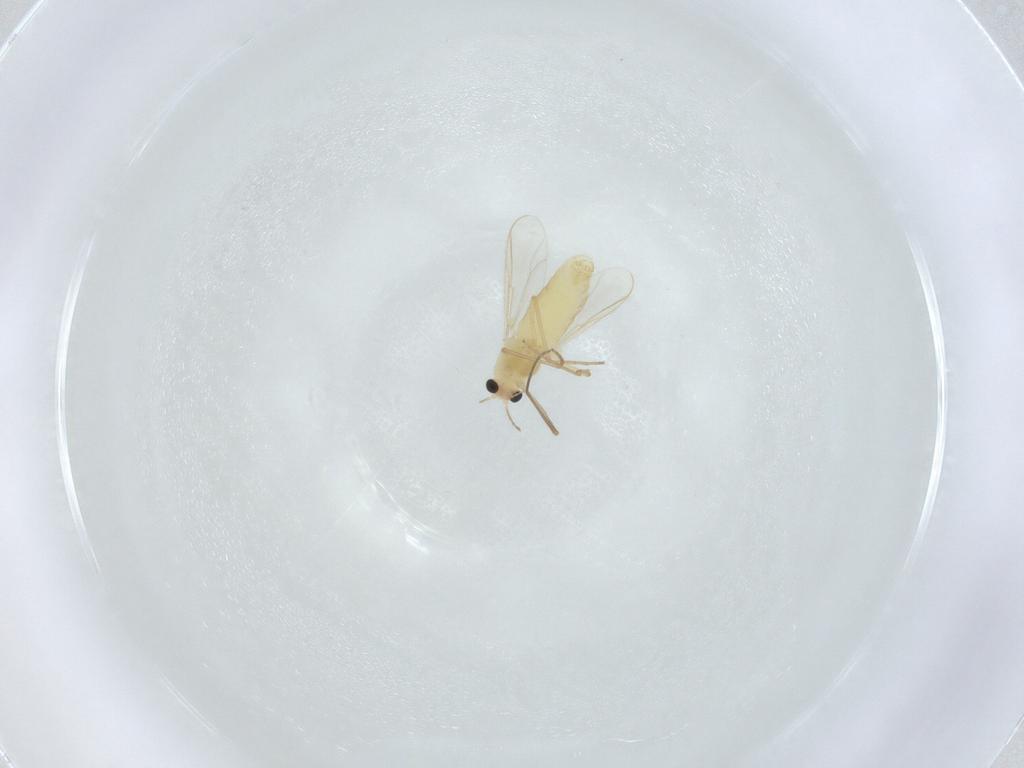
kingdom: Animalia
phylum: Arthropoda
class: Insecta
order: Diptera
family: Chironomidae
